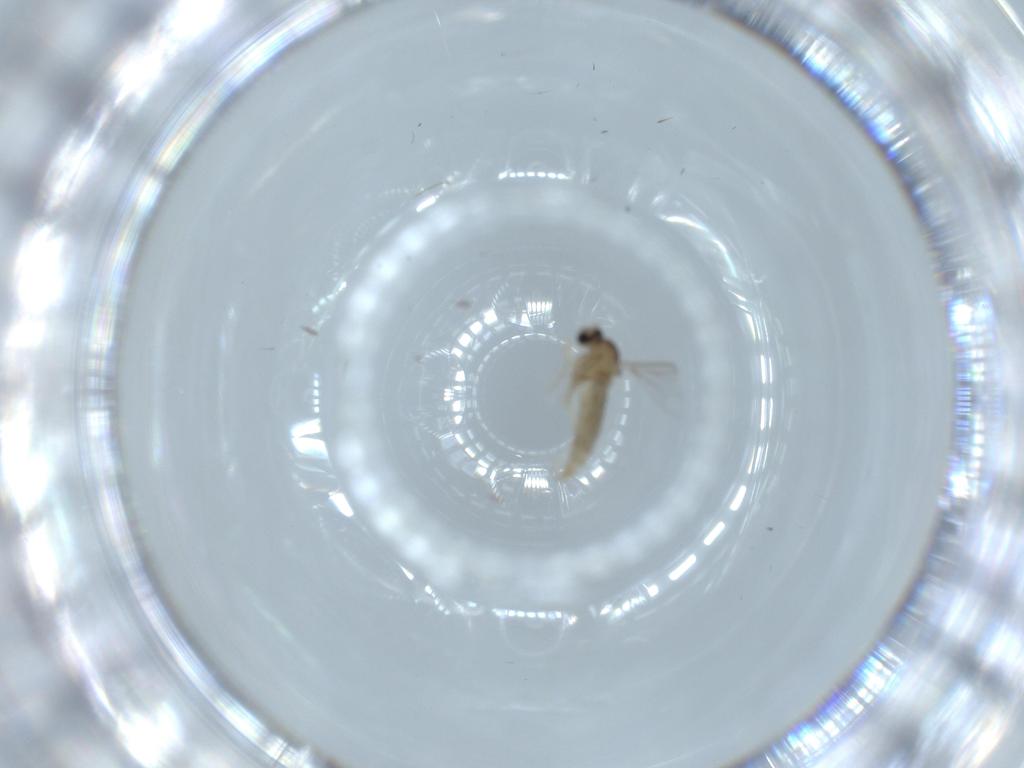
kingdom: Animalia
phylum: Arthropoda
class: Insecta
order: Diptera
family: Cecidomyiidae
